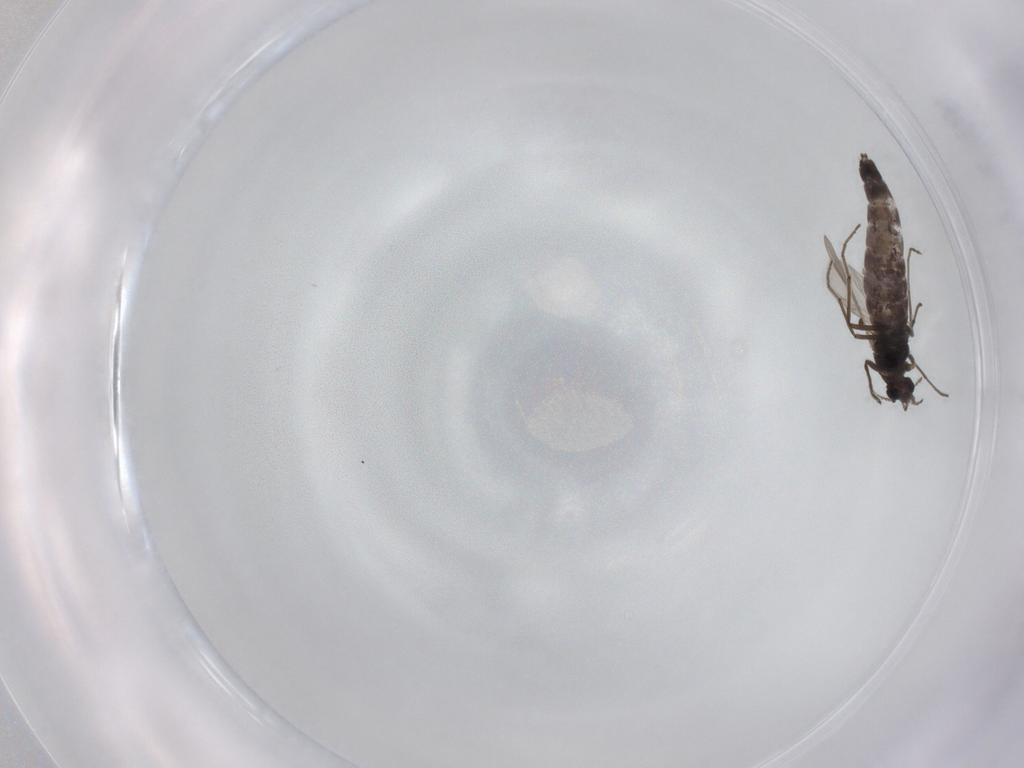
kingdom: Animalia
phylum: Arthropoda
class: Insecta
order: Diptera
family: Chironomidae
